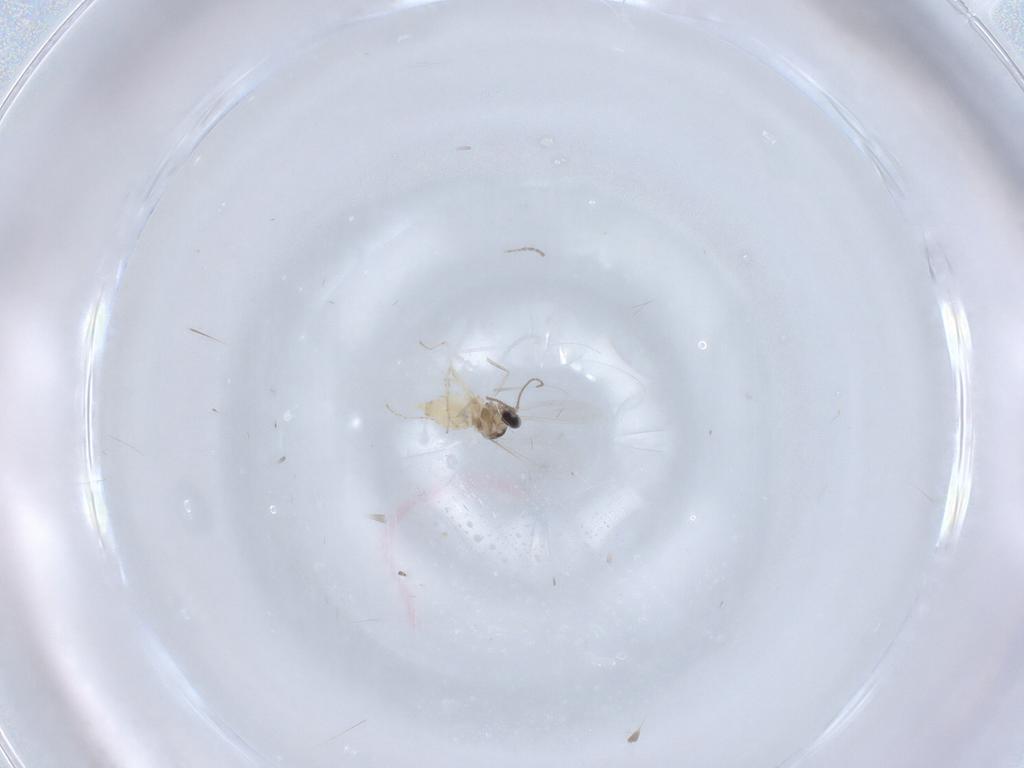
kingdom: Animalia
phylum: Arthropoda
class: Insecta
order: Diptera
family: Cecidomyiidae
